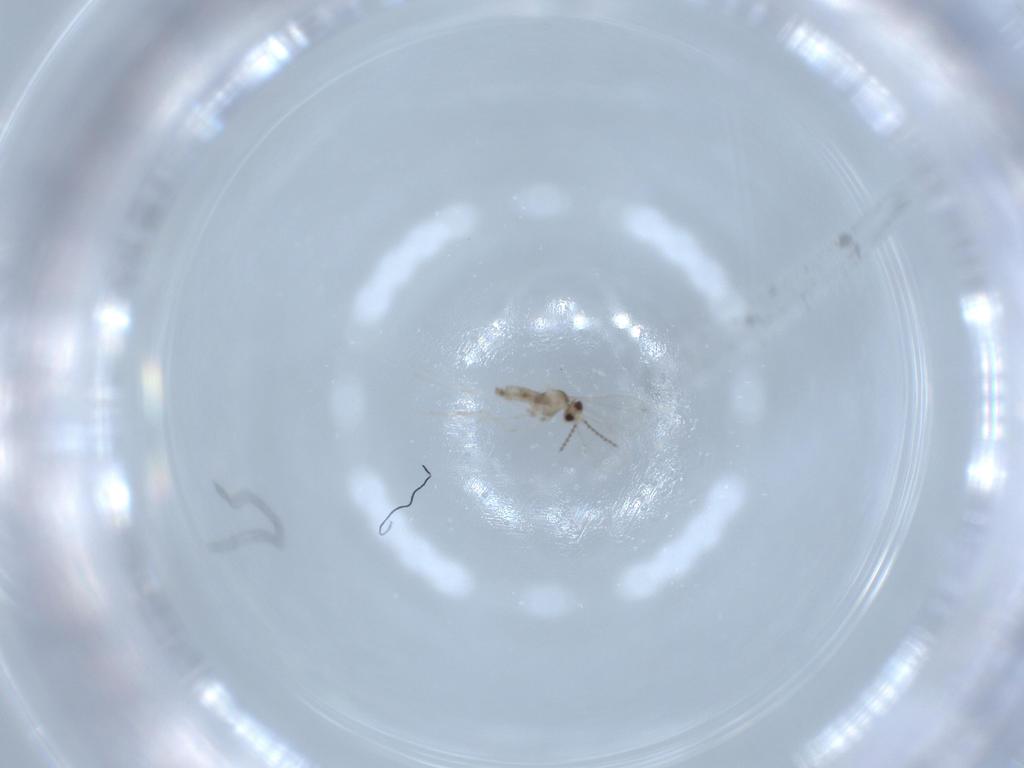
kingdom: Animalia
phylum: Arthropoda
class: Insecta
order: Diptera
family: Cecidomyiidae
